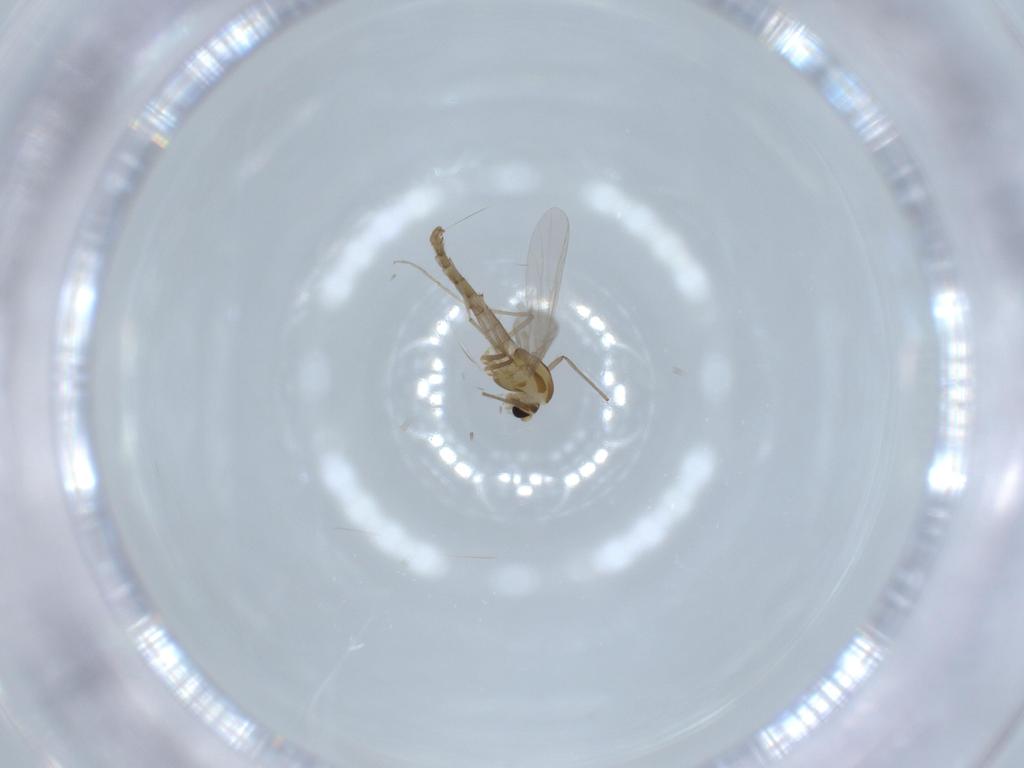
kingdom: Animalia
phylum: Arthropoda
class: Insecta
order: Diptera
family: Chironomidae
